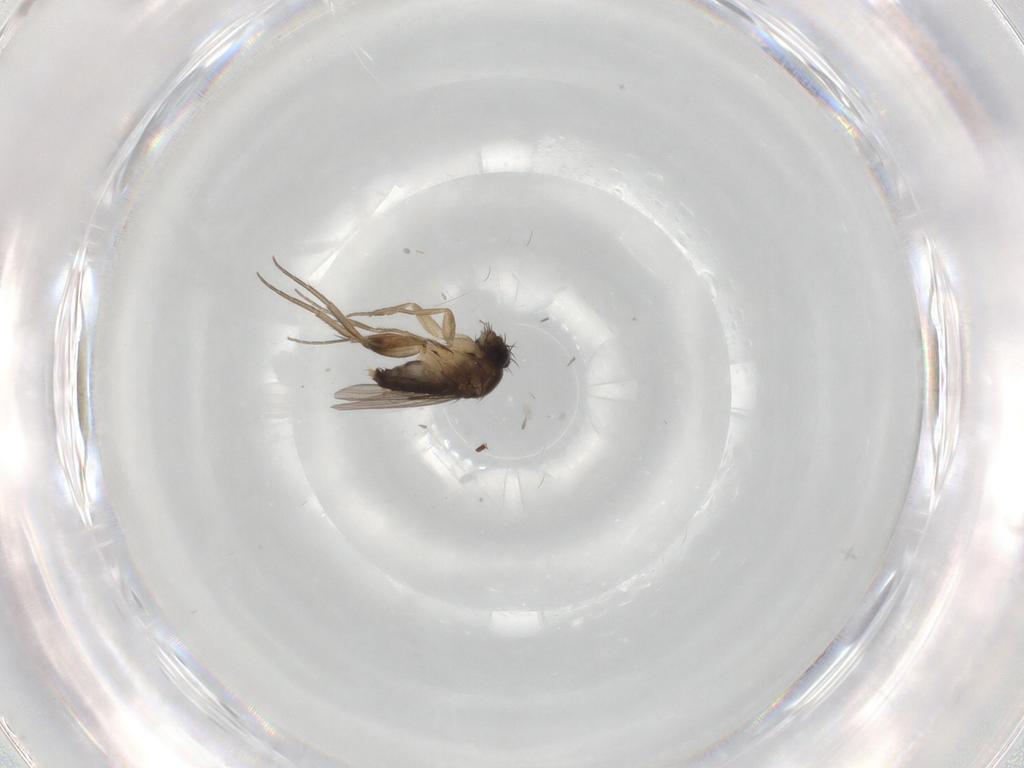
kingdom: Animalia
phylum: Arthropoda
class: Insecta
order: Diptera
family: Phoridae
